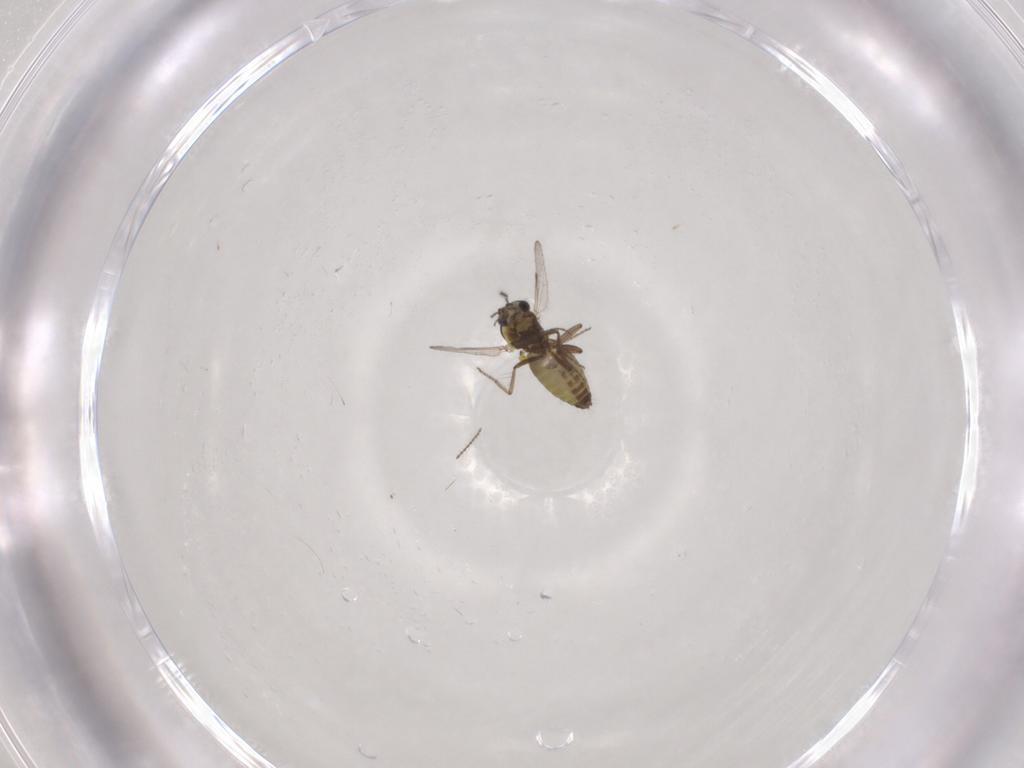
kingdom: Animalia
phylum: Arthropoda
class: Insecta
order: Diptera
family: Ceratopogonidae
